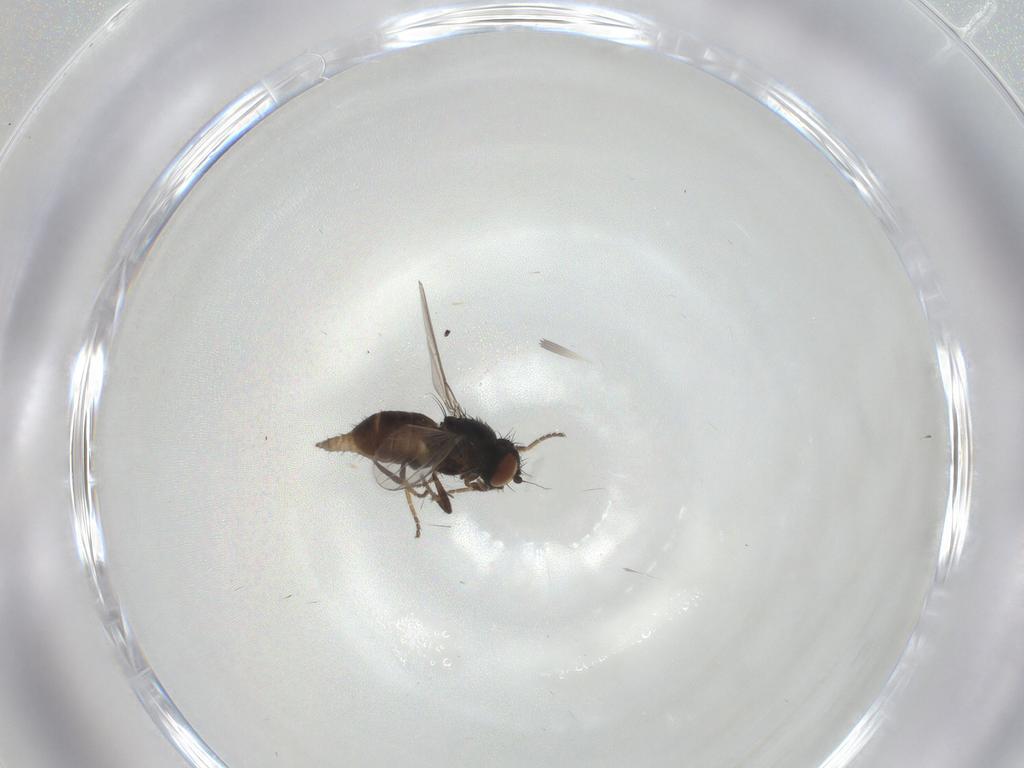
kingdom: Animalia
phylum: Arthropoda
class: Insecta
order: Diptera
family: Milichiidae
